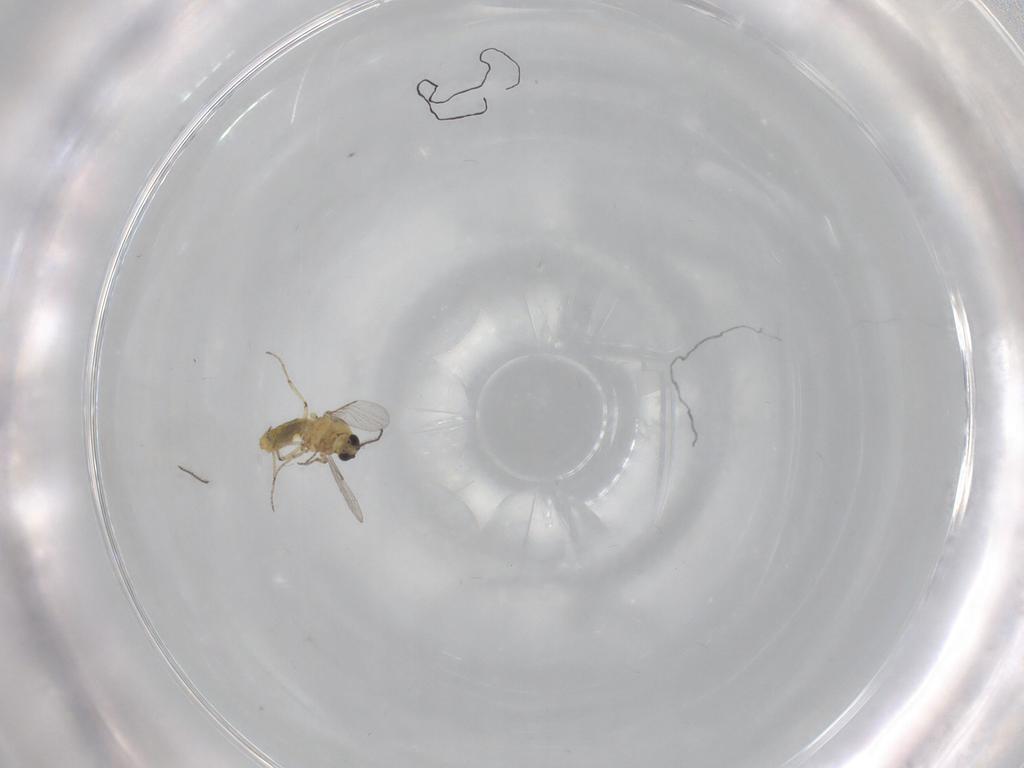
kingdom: Animalia
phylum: Arthropoda
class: Insecta
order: Diptera
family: Ceratopogonidae
